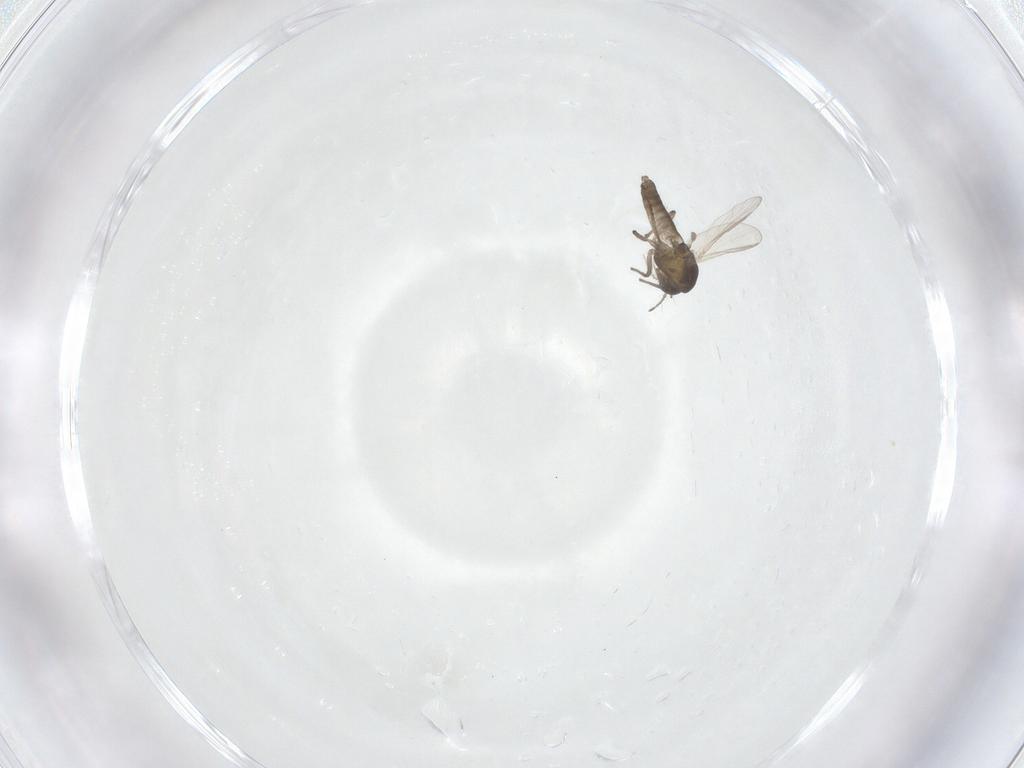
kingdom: Animalia
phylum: Arthropoda
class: Insecta
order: Diptera
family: Chironomidae
